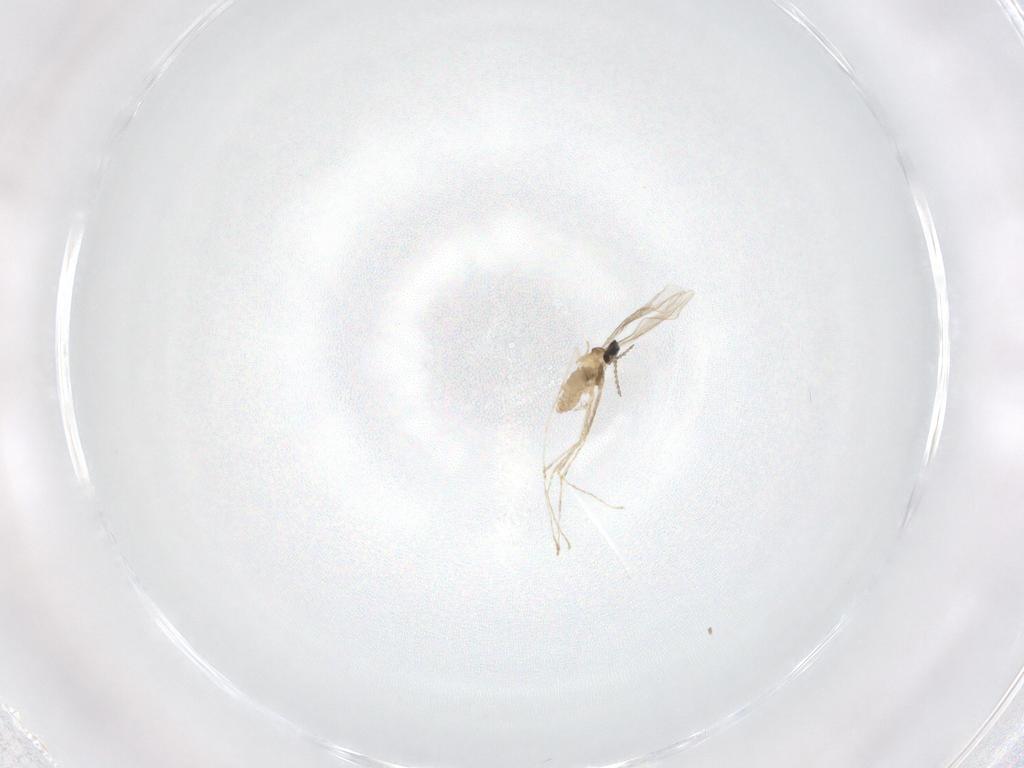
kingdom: Animalia
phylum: Arthropoda
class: Insecta
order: Diptera
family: Cecidomyiidae
